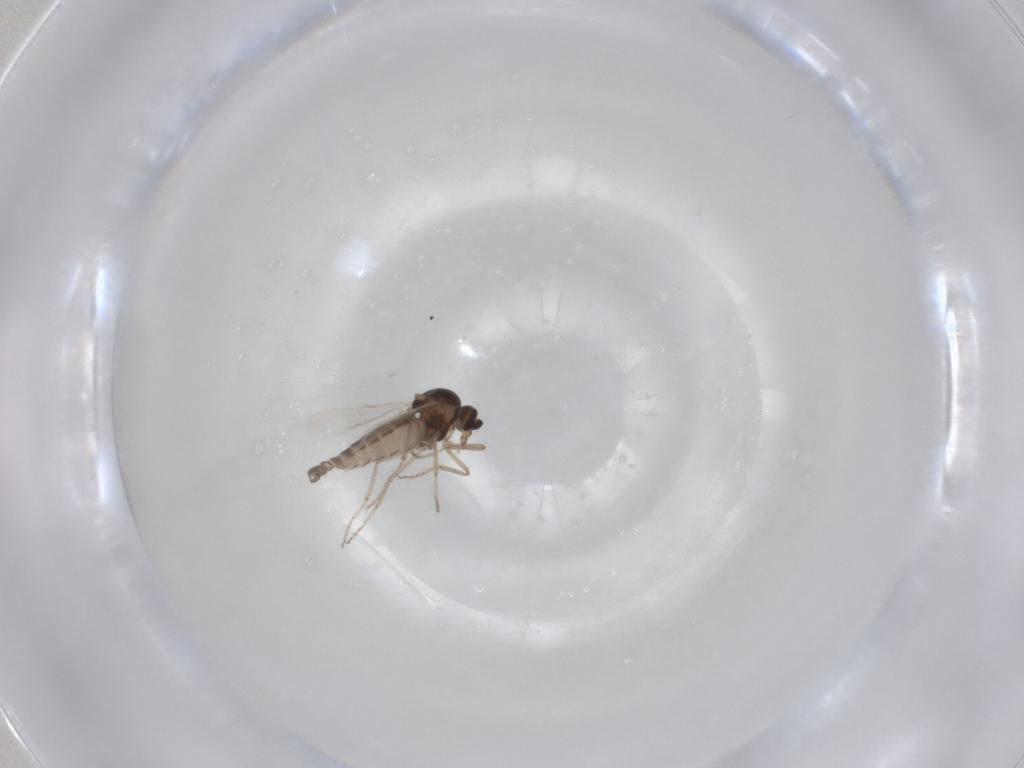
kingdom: Animalia
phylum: Arthropoda
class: Insecta
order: Diptera
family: Ceratopogonidae
